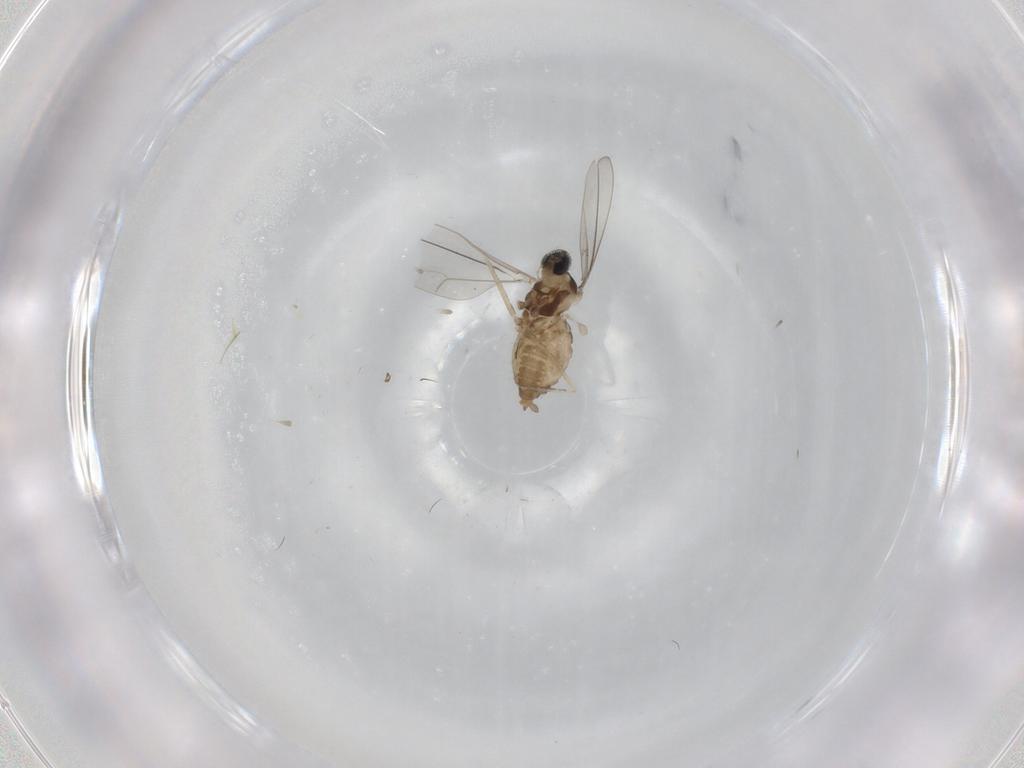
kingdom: Animalia
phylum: Arthropoda
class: Insecta
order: Diptera
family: Cecidomyiidae
